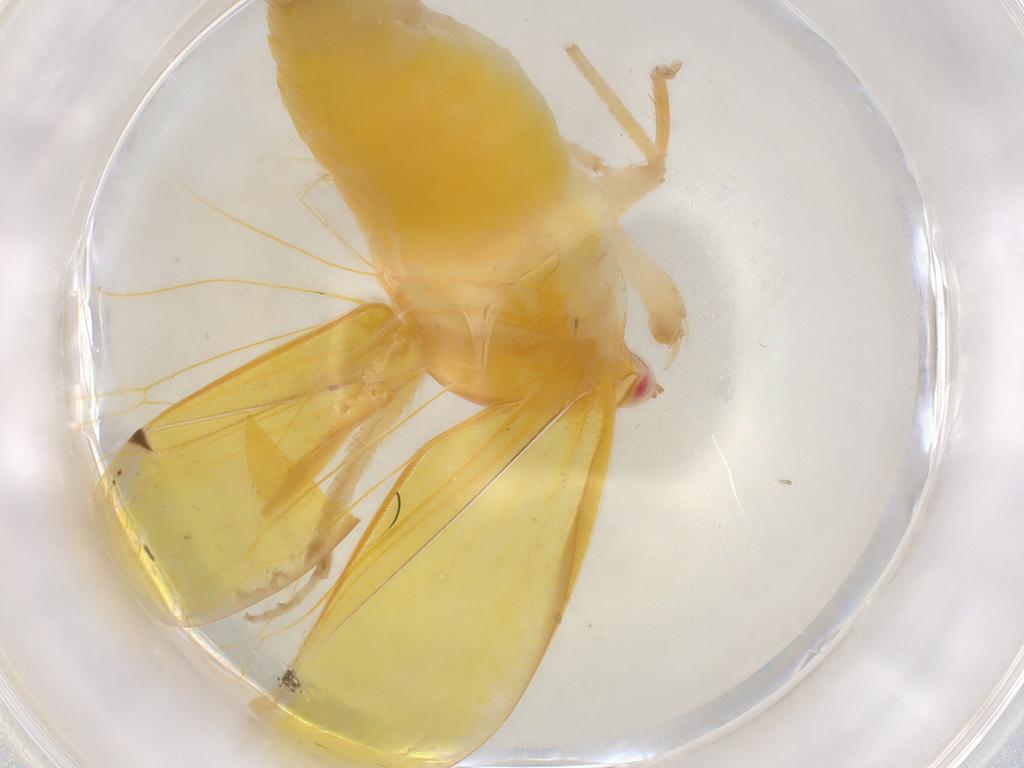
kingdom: Animalia
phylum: Arthropoda
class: Insecta
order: Hemiptera
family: Cicadellidae
